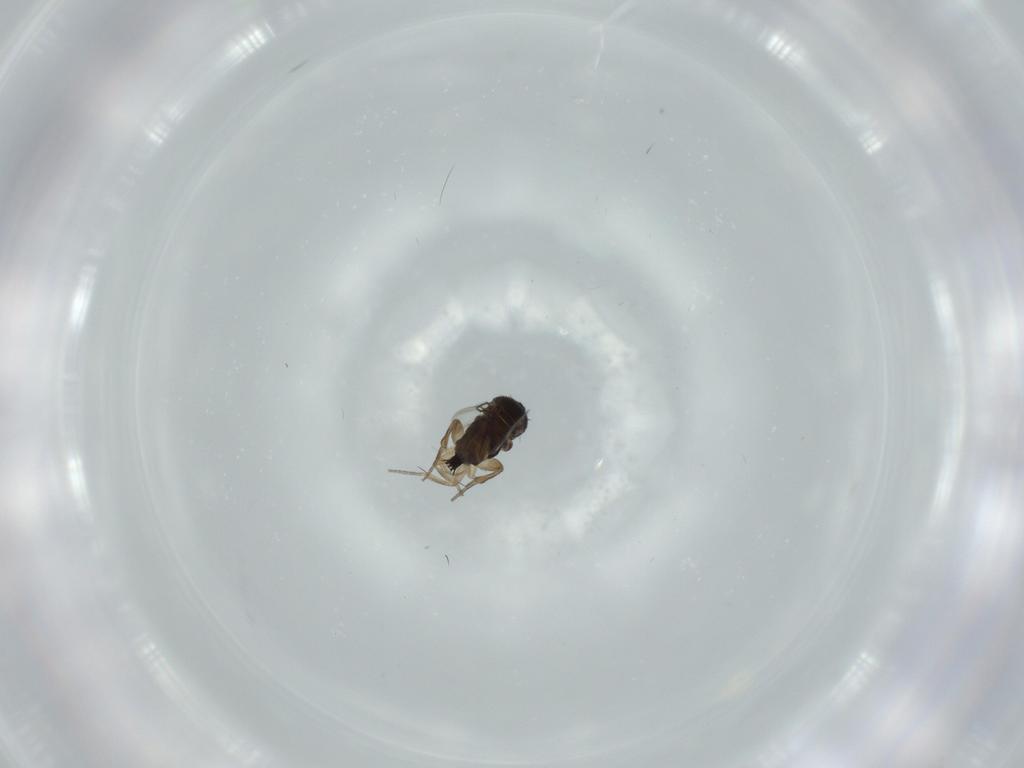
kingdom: Animalia
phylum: Arthropoda
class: Insecta
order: Diptera
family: Phoridae
